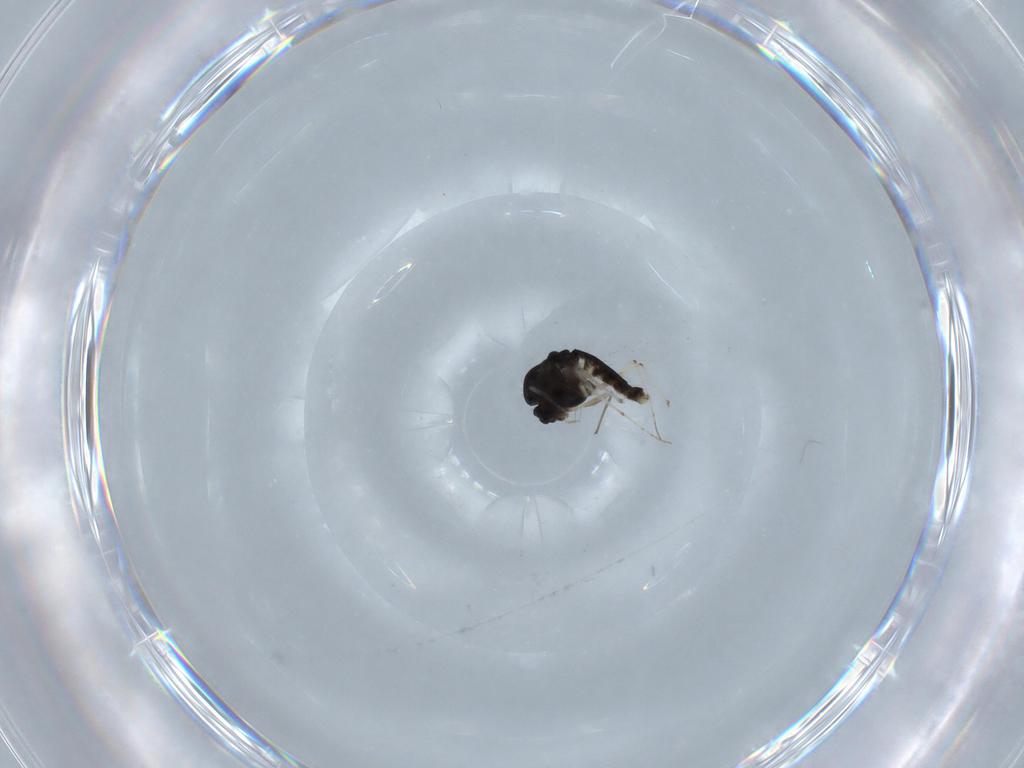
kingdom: Animalia
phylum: Arthropoda
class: Insecta
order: Diptera
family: Chironomidae
